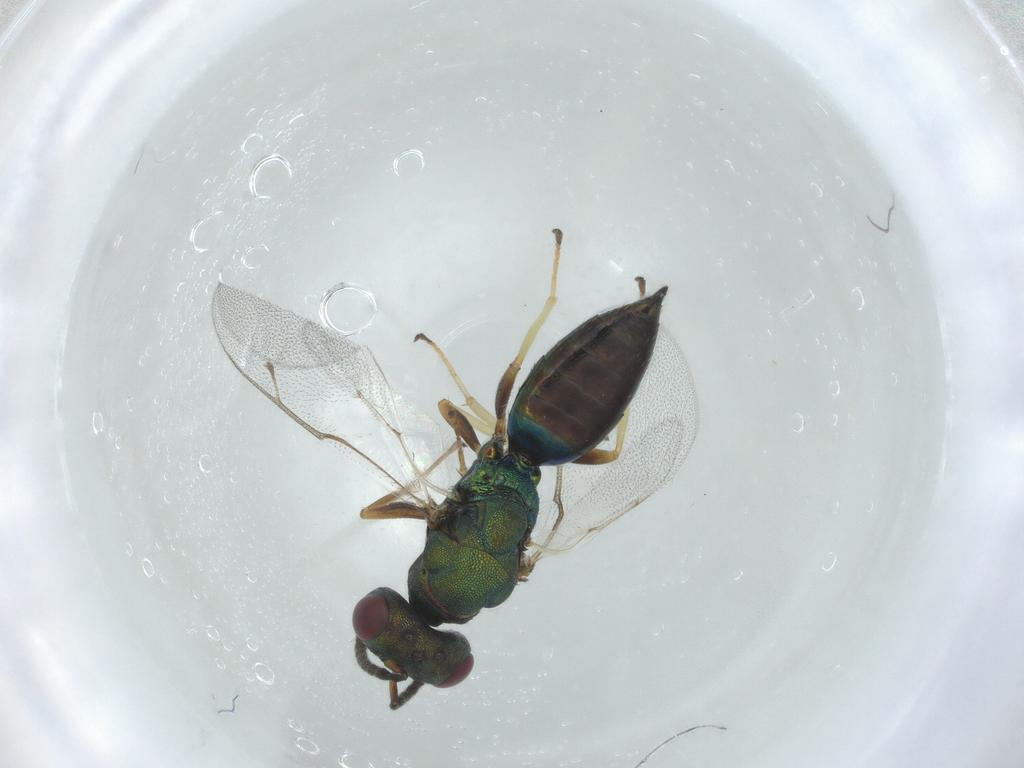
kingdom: Animalia
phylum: Arthropoda
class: Insecta
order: Hymenoptera
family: Pteromalidae
